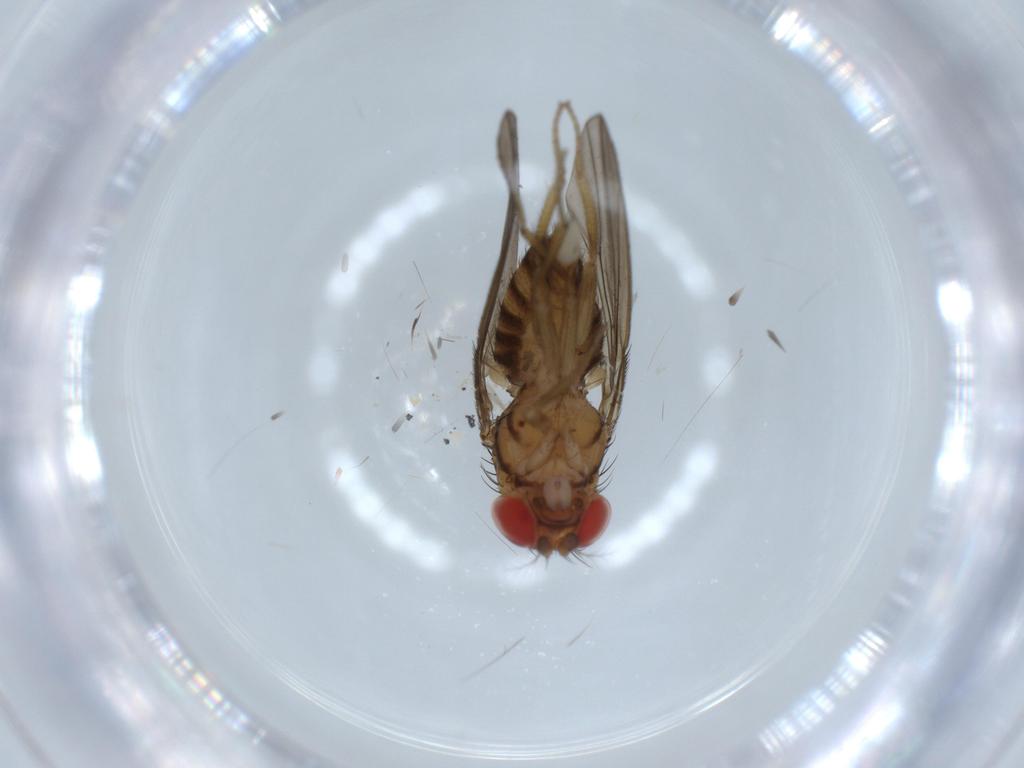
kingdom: Animalia
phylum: Arthropoda
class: Insecta
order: Diptera
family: Drosophilidae
